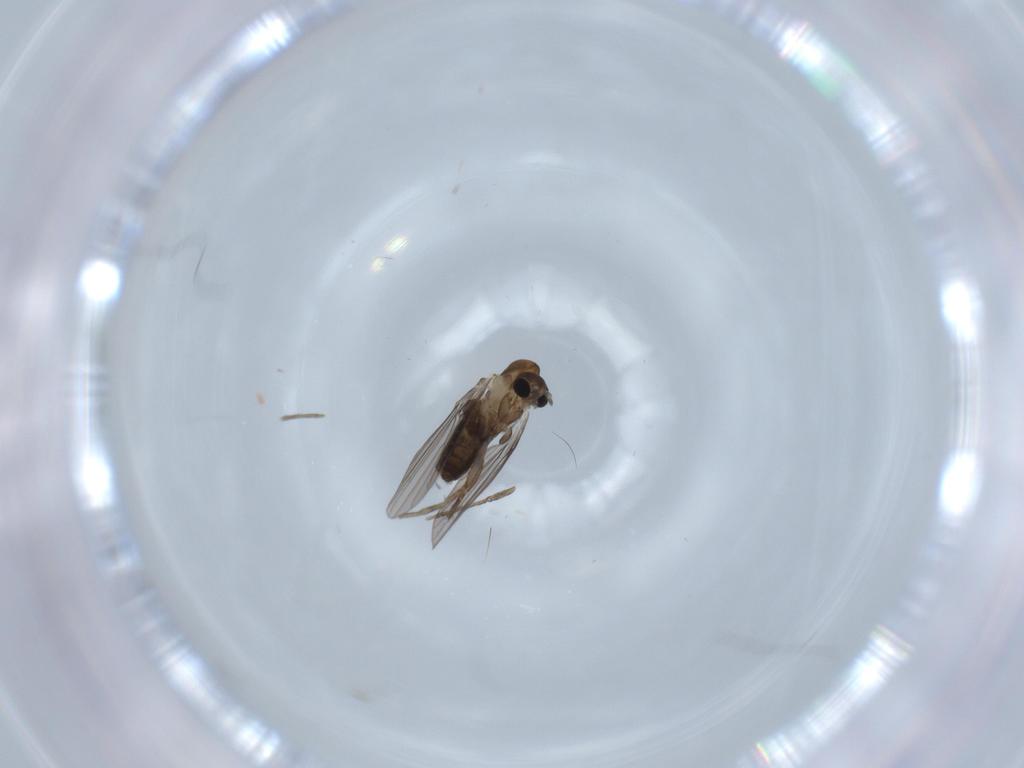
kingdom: Animalia
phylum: Arthropoda
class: Insecta
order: Diptera
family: Psychodidae
